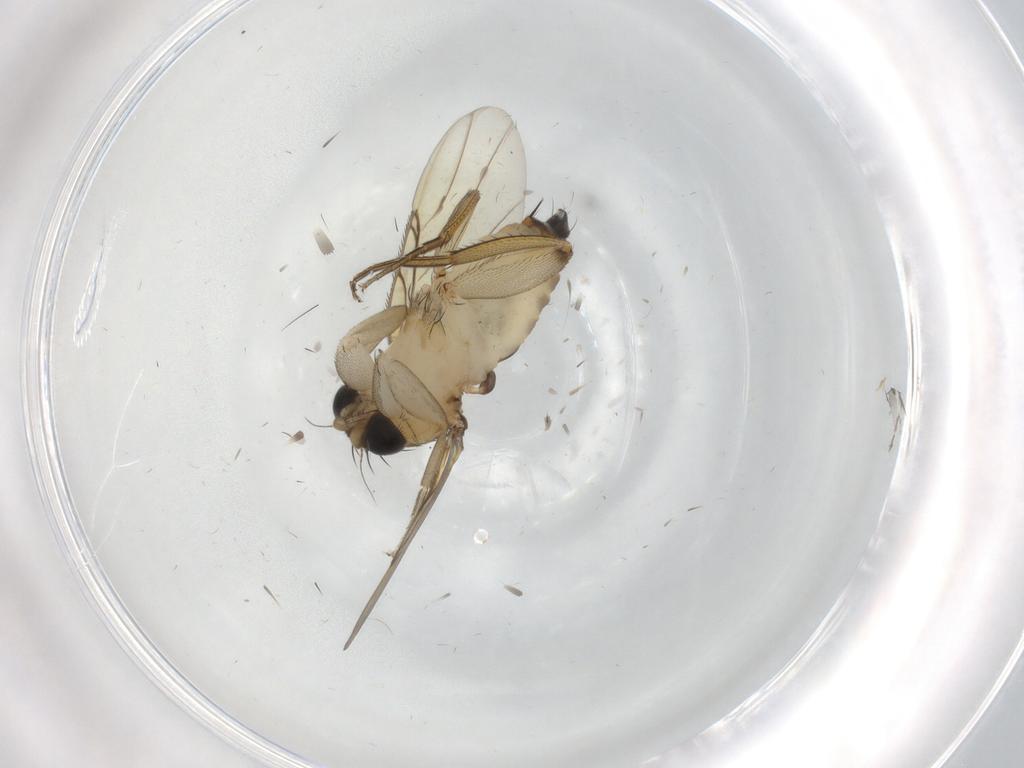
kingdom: Animalia
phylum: Arthropoda
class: Insecta
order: Diptera
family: Phoridae
